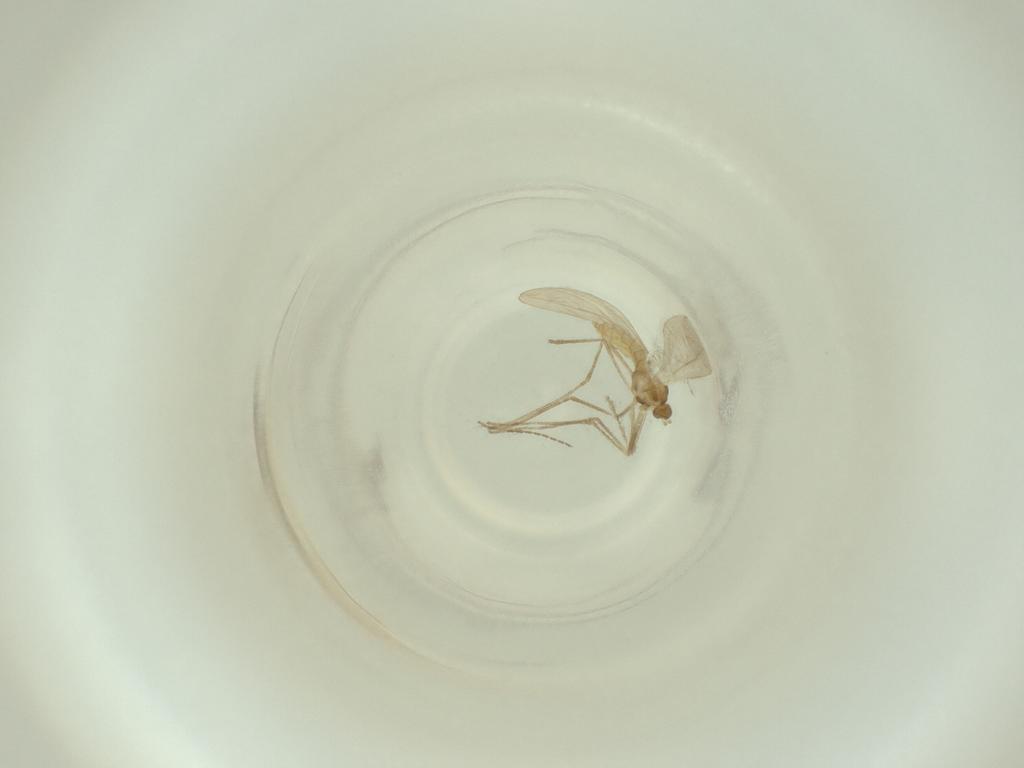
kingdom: Animalia
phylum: Arthropoda
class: Insecta
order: Diptera
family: Cecidomyiidae
